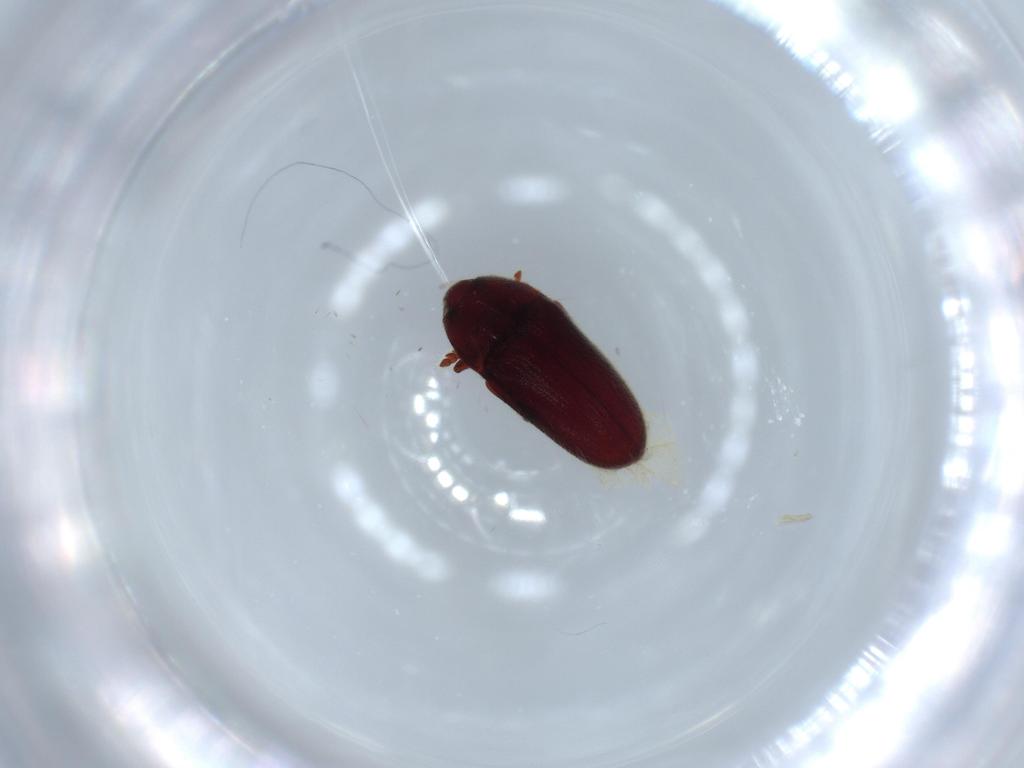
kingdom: Animalia
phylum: Arthropoda
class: Insecta
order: Coleoptera
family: Throscidae
